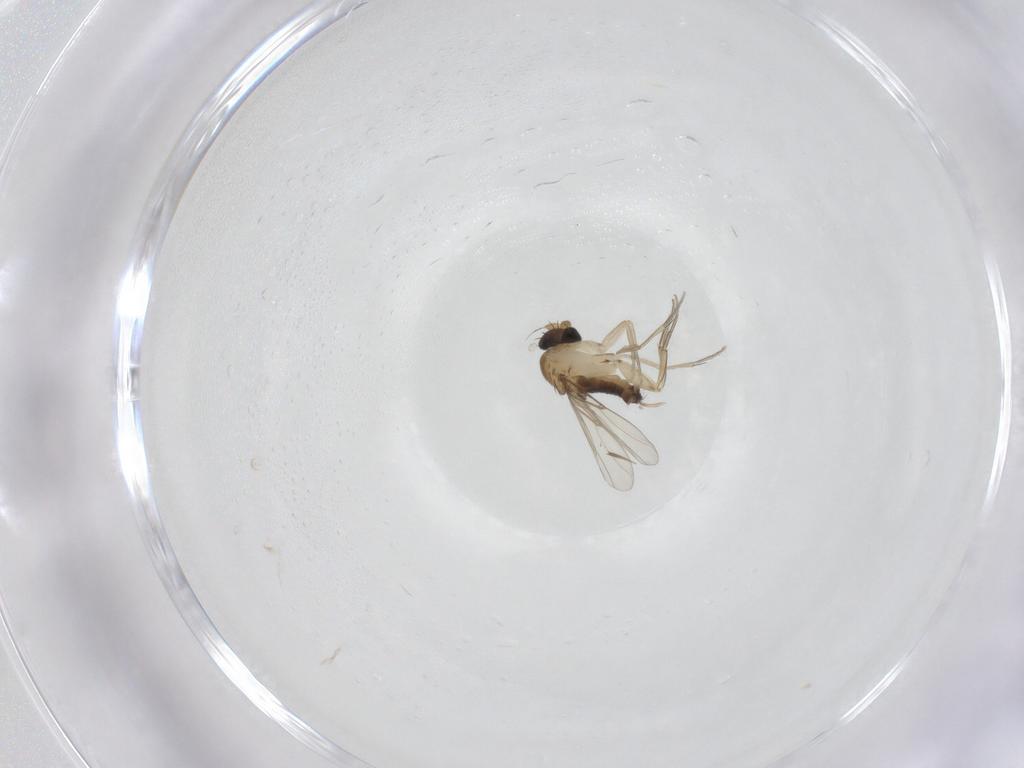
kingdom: Animalia
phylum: Arthropoda
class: Insecta
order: Diptera
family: Phoridae
